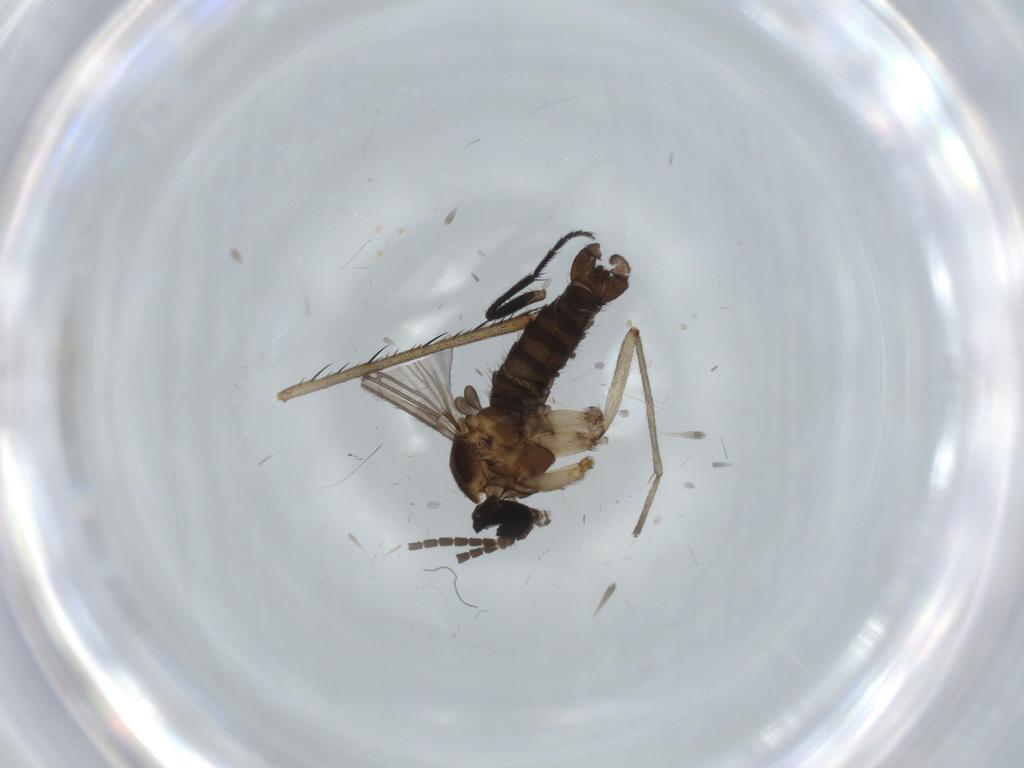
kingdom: Animalia
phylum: Arthropoda
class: Insecta
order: Diptera
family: Sciaridae
